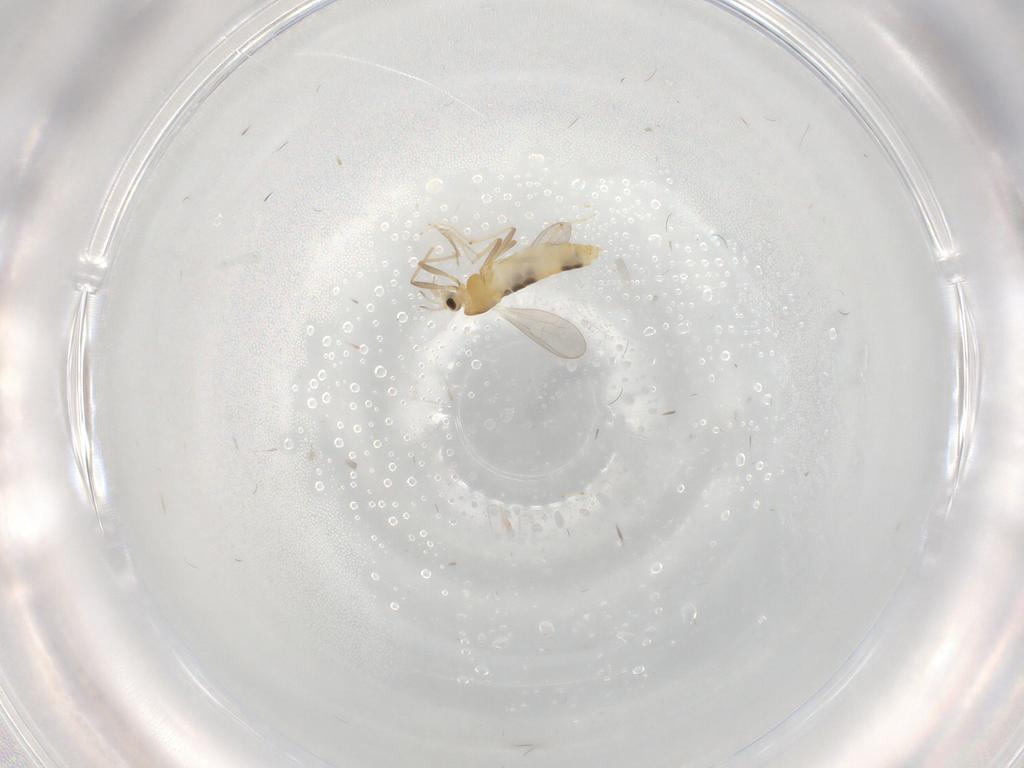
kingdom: Animalia
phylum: Arthropoda
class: Insecta
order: Diptera
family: Chironomidae
